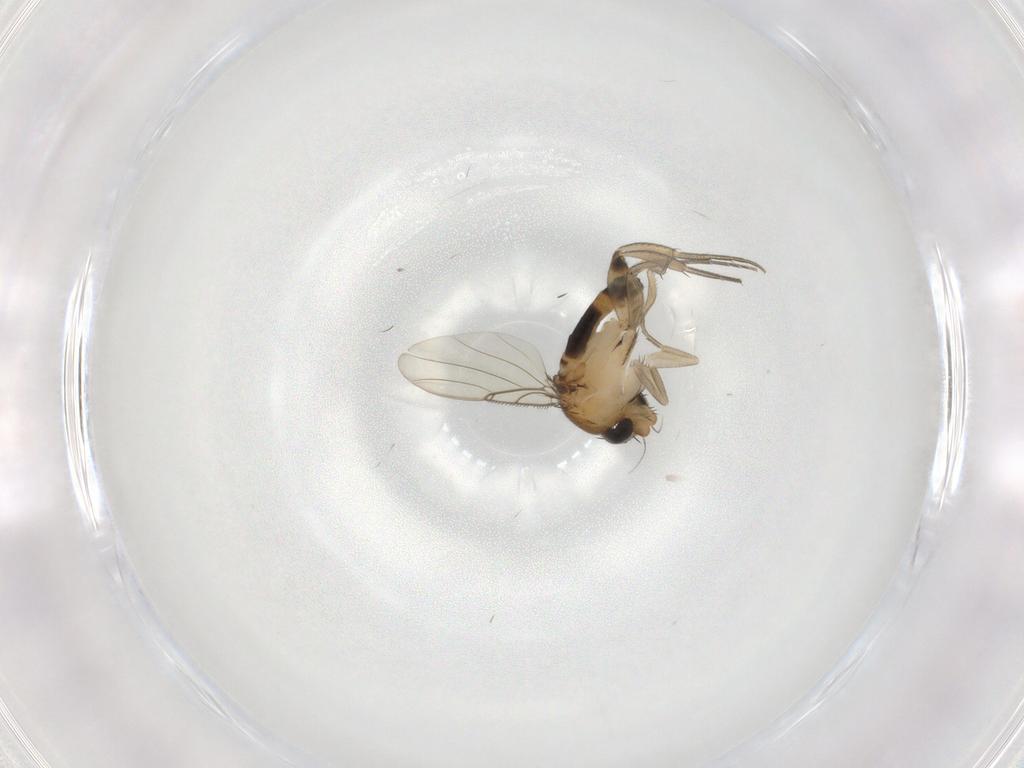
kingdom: Animalia
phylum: Arthropoda
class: Insecta
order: Diptera
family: Phoridae
